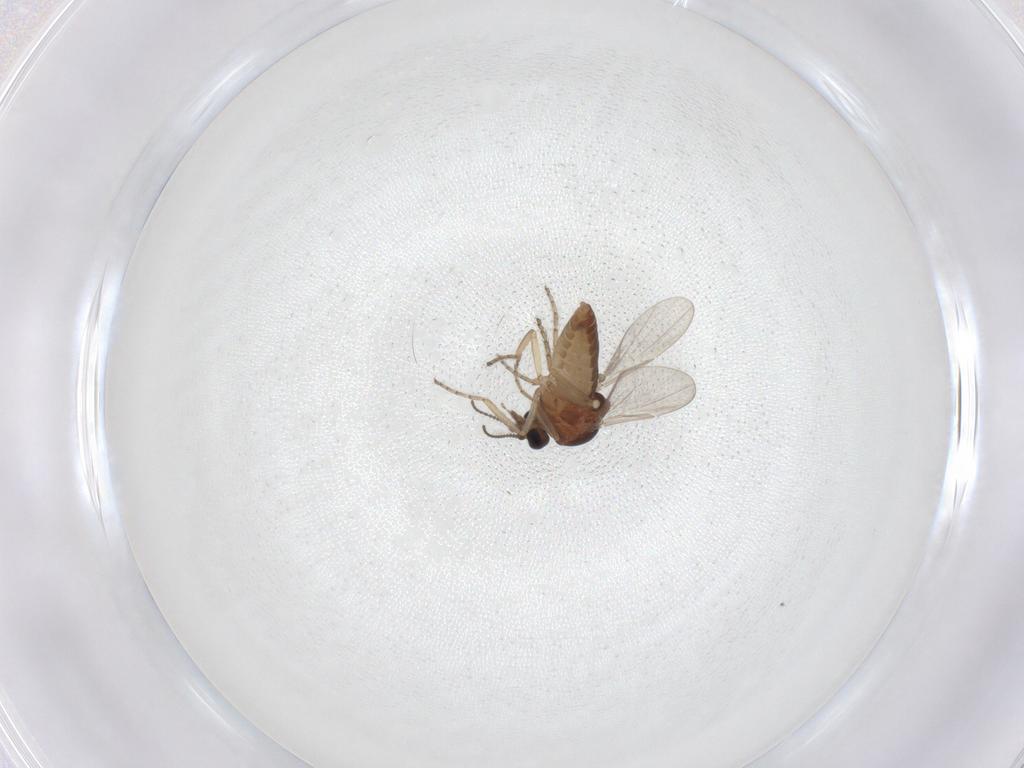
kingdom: Animalia
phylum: Arthropoda
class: Insecta
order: Diptera
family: Ceratopogonidae
